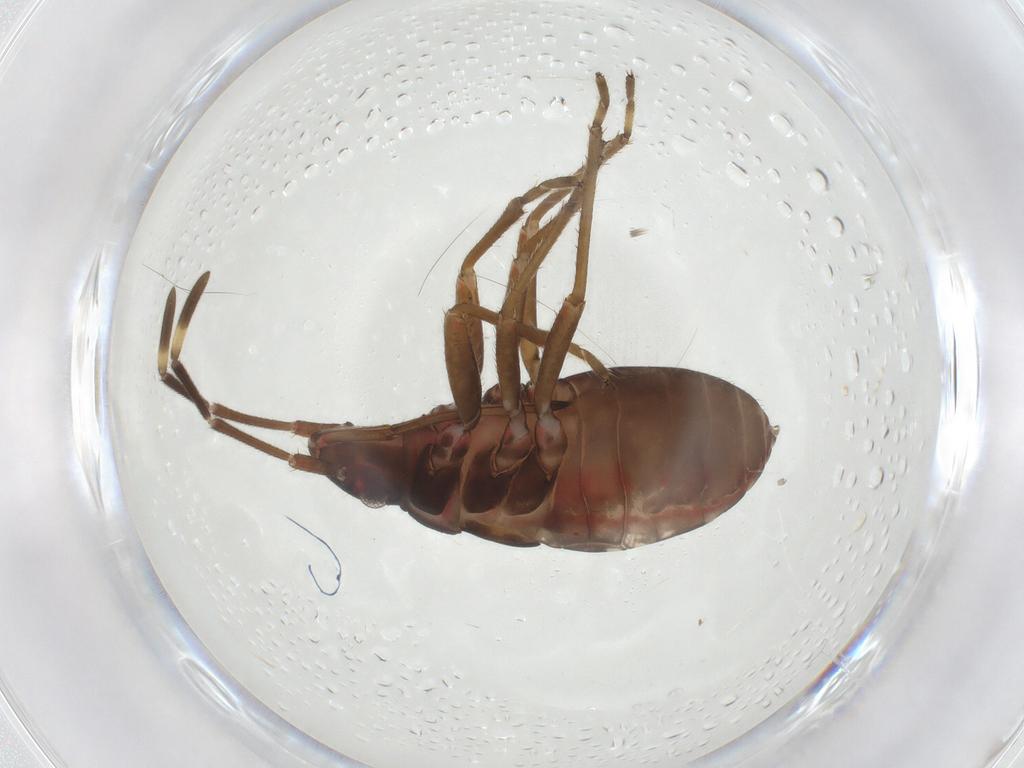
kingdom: Animalia
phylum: Arthropoda
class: Insecta
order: Hemiptera
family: Rhyparochromidae
